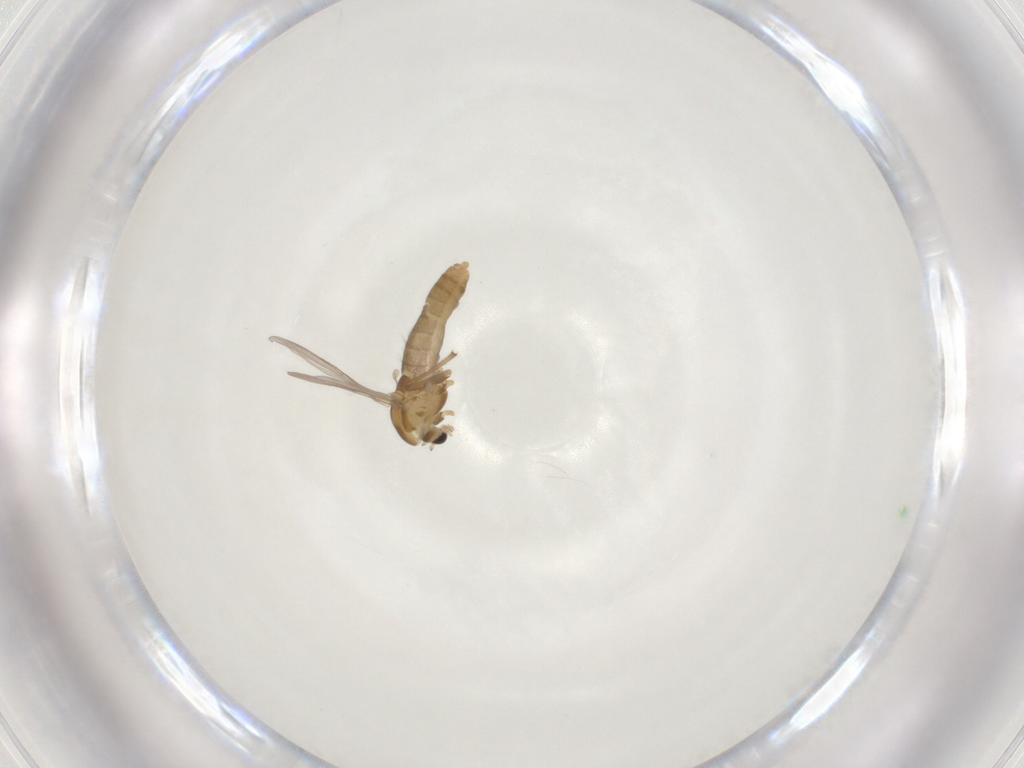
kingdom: Animalia
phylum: Arthropoda
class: Insecta
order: Diptera
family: Chironomidae
